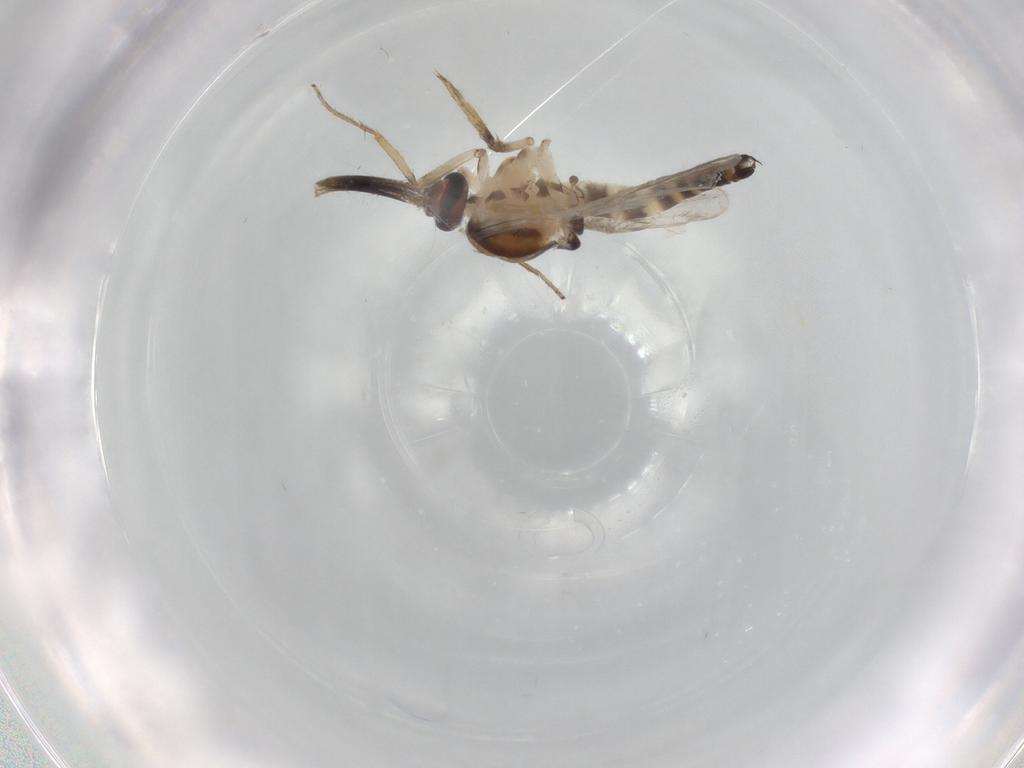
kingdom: Animalia
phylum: Arthropoda
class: Insecta
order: Diptera
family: Ceratopogonidae
